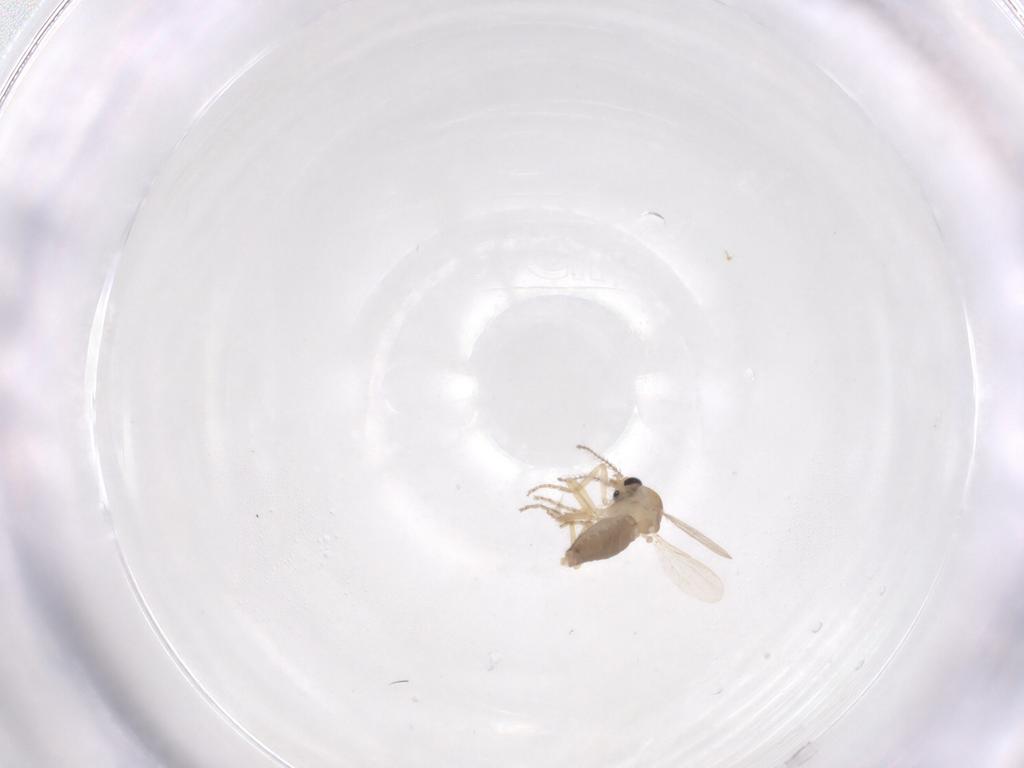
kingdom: Animalia
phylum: Arthropoda
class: Insecta
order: Diptera
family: Ceratopogonidae
